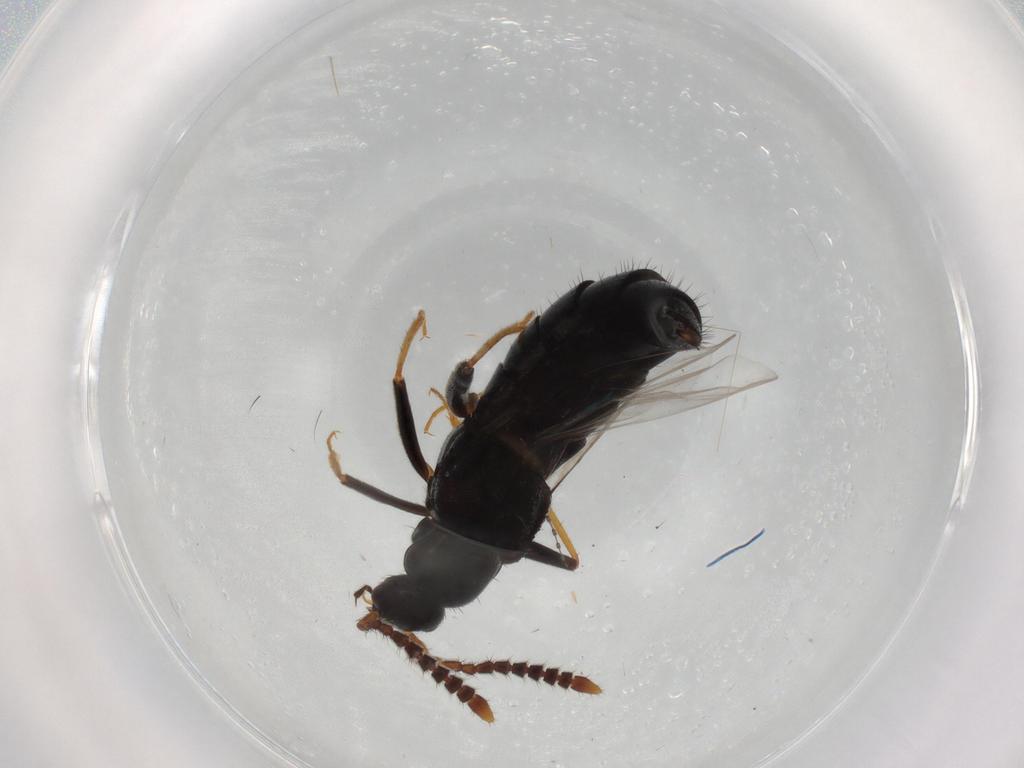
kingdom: Animalia
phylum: Arthropoda
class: Insecta
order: Coleoptera
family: Staphylinidae
